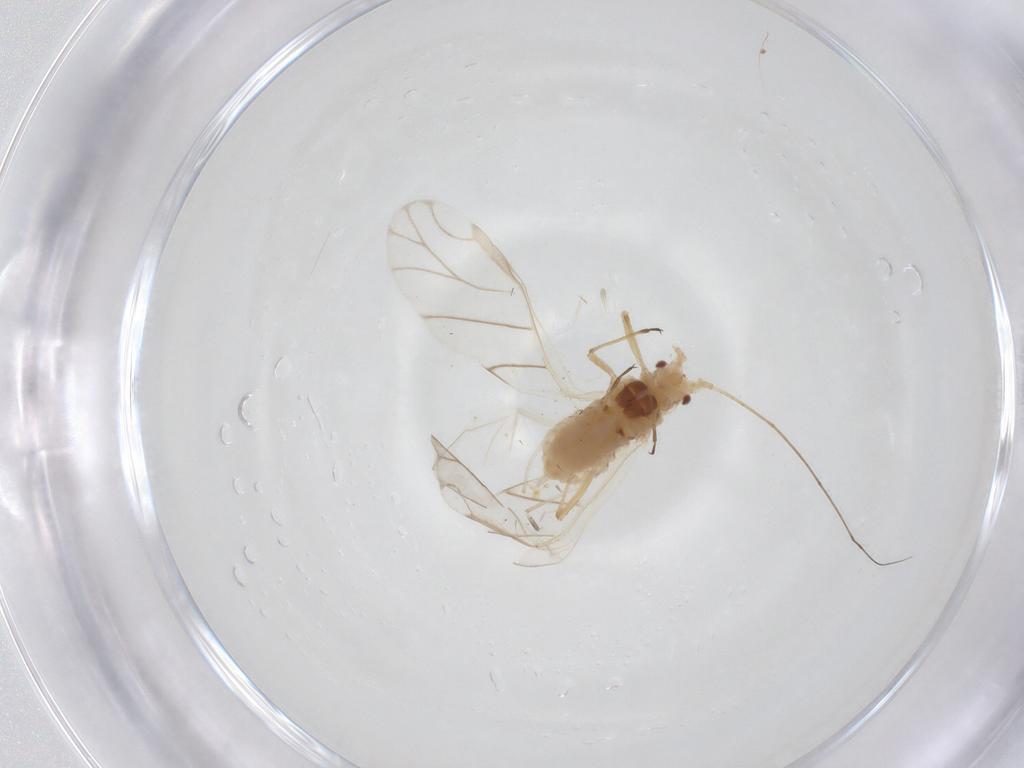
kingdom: Animalia
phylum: Arthropoda
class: Insecta
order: Hemiptera
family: Aphididae
